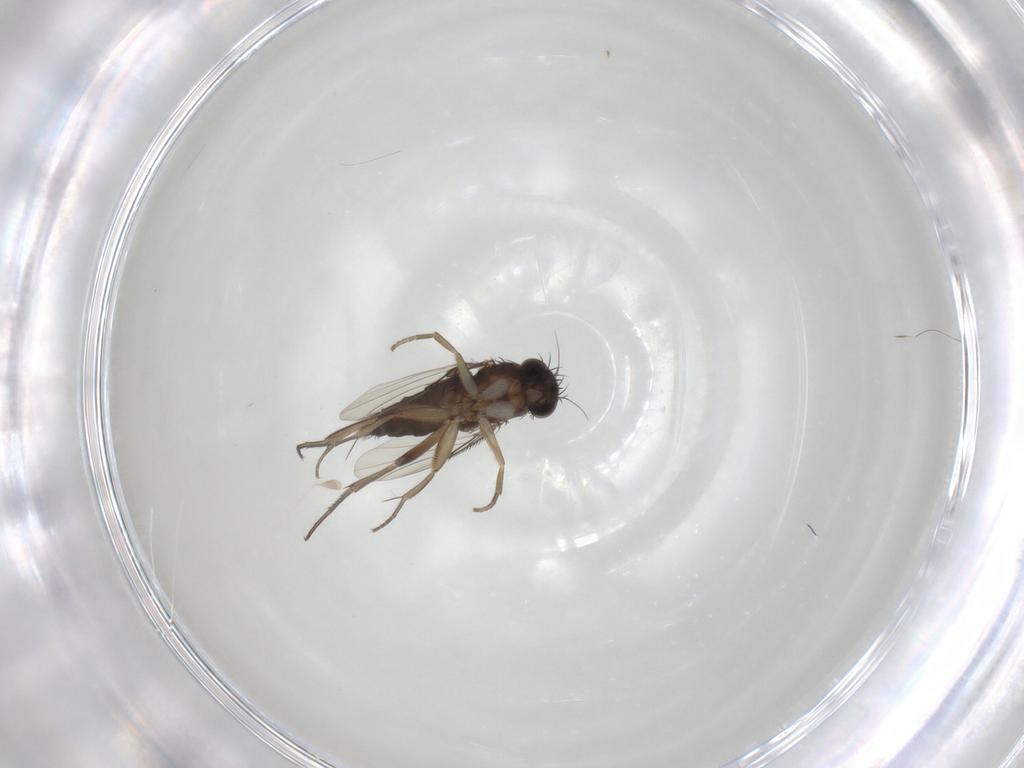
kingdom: Animalia
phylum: Arthropoda
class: Insecta
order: Diptera
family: Phoridae
